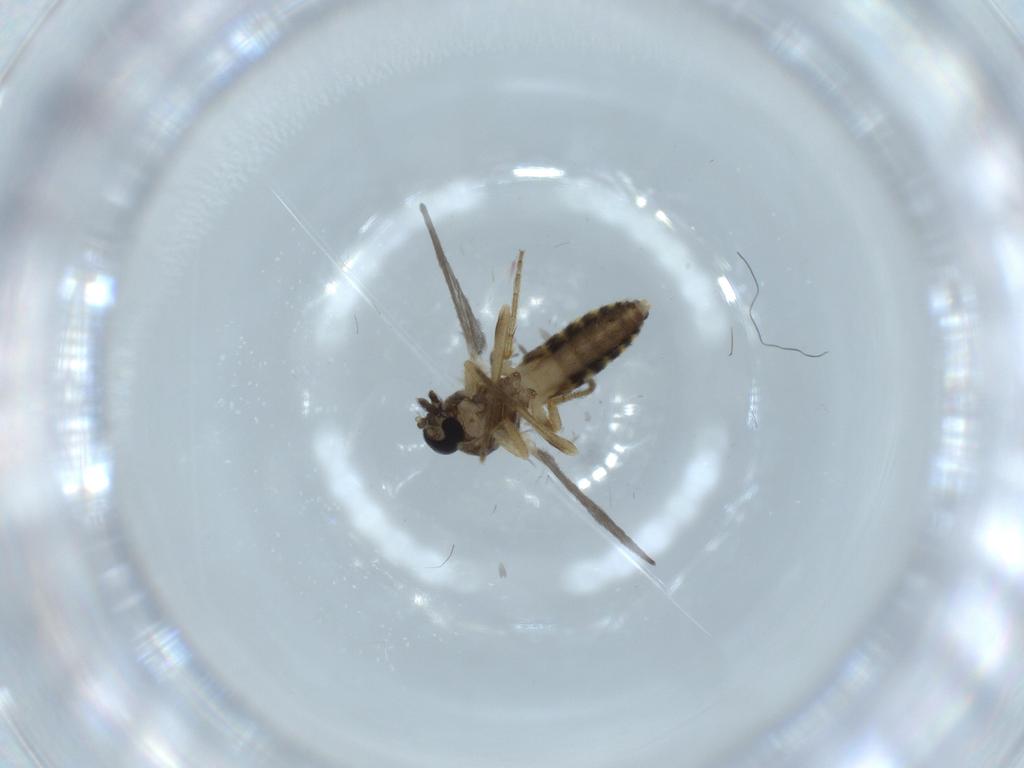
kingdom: Animalia
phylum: Arthropoda
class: Insecta
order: Diptera
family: Ceratopogonidae
